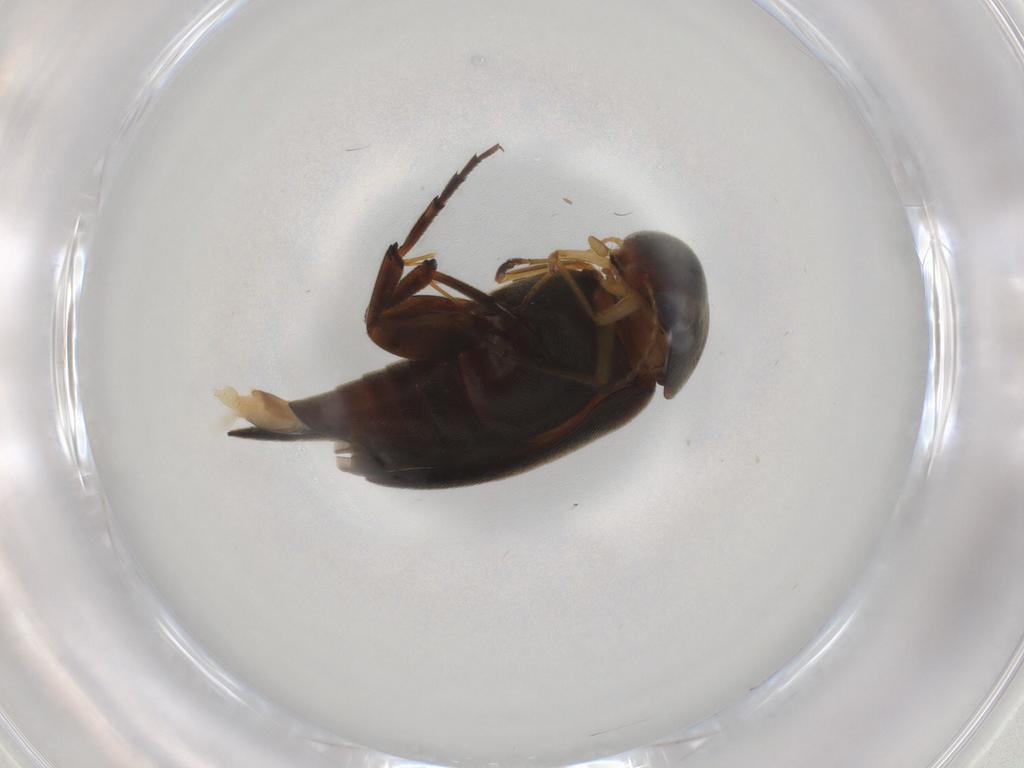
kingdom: Animalia
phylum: Arthropoda
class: Insecta
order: Coleoptera
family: Mordellidae
